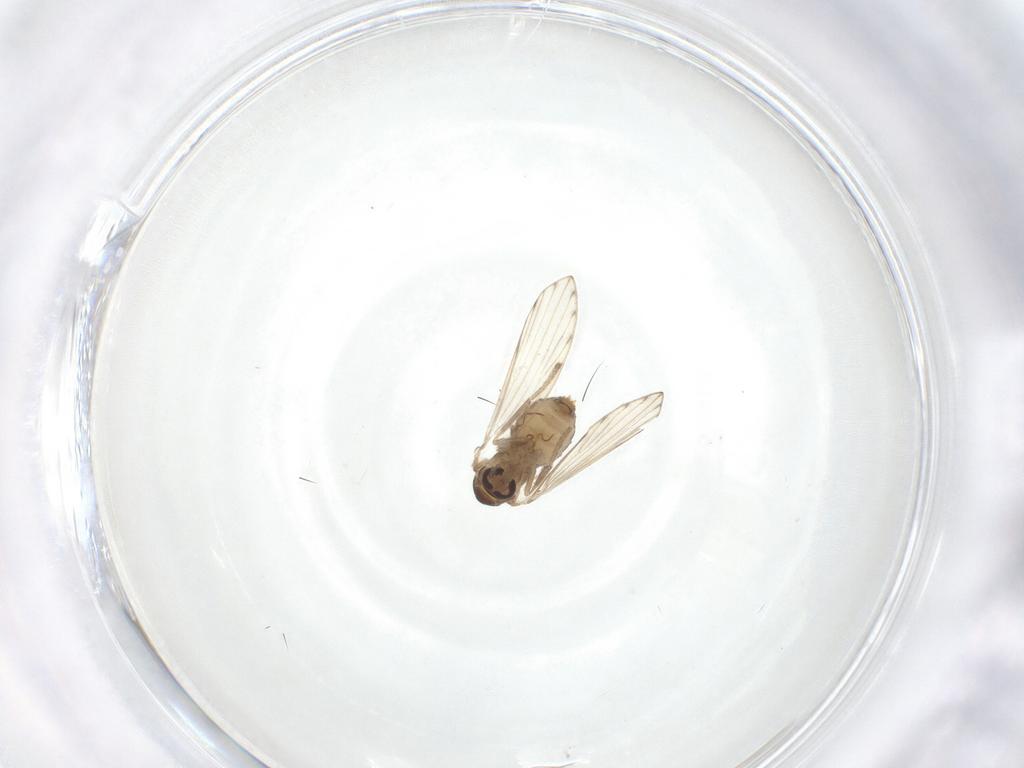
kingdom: Animalia
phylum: Arthropoda
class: Insecta
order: Diptera
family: Psychodidae
